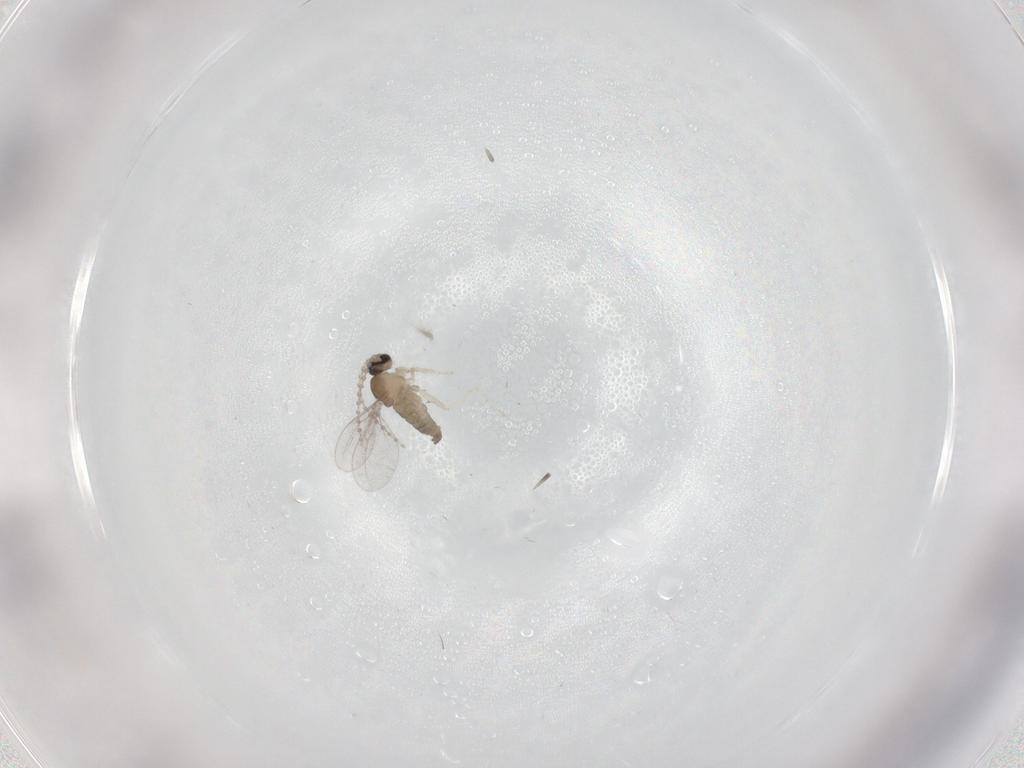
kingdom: Animalia
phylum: Arthropoda
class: Insecta
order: Diptera
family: Cecidomyiidae
